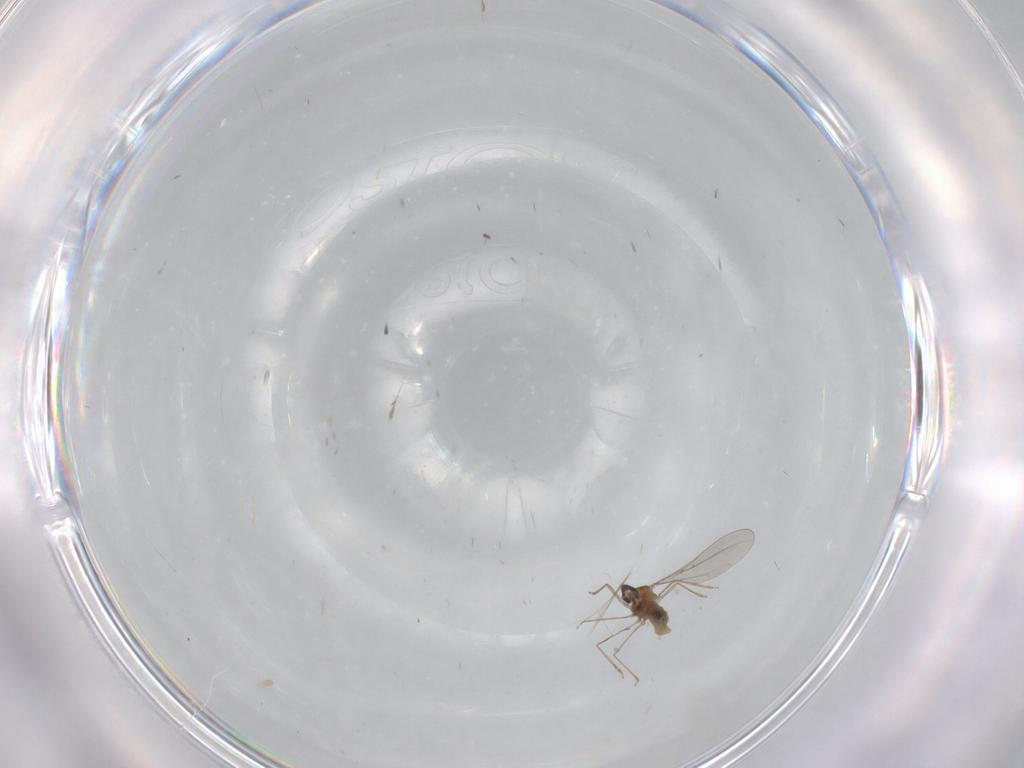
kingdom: Animalia
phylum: Arthropoda
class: Insecta
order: Diptera
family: Cecidomyiidae
